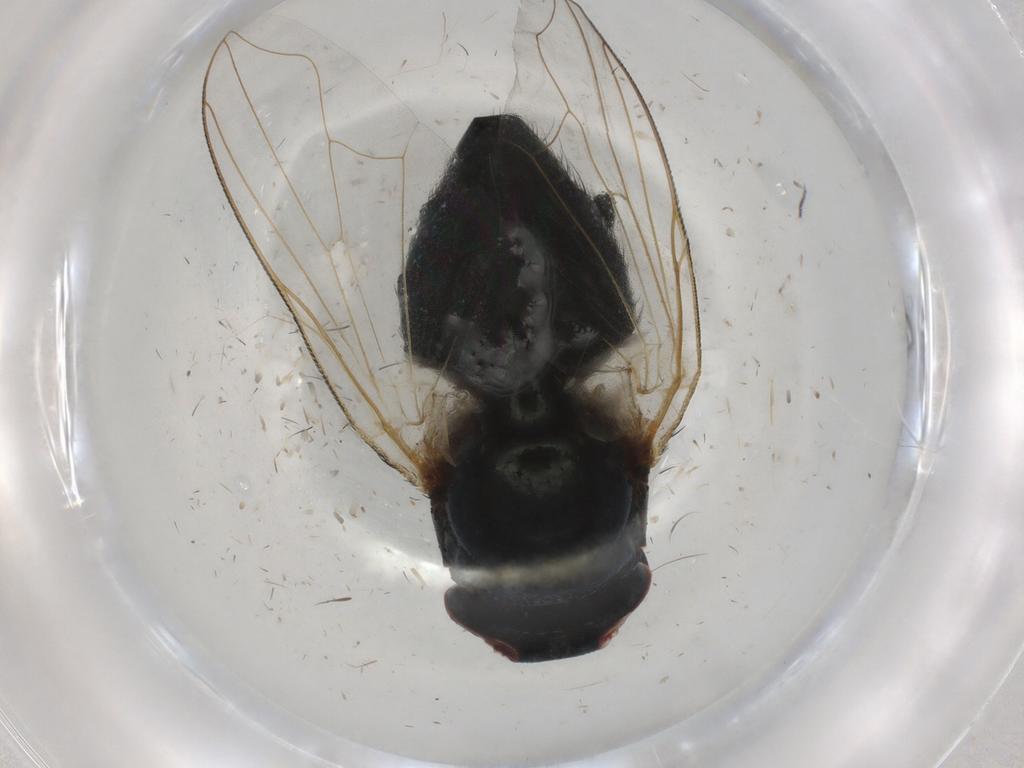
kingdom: Animalia
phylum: Arthropoda
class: Insecta
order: Diptera
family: Muscidae
